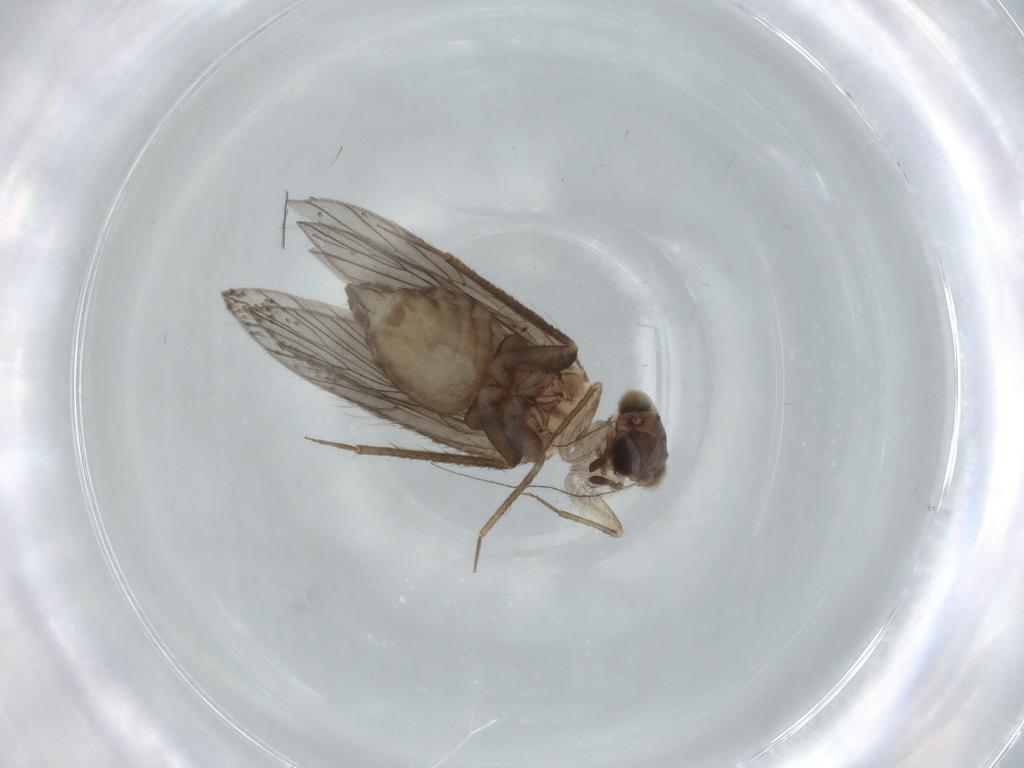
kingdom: Animalia
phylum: Arthropoda
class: Insecta
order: Psocodea
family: Lepidopsocidae
